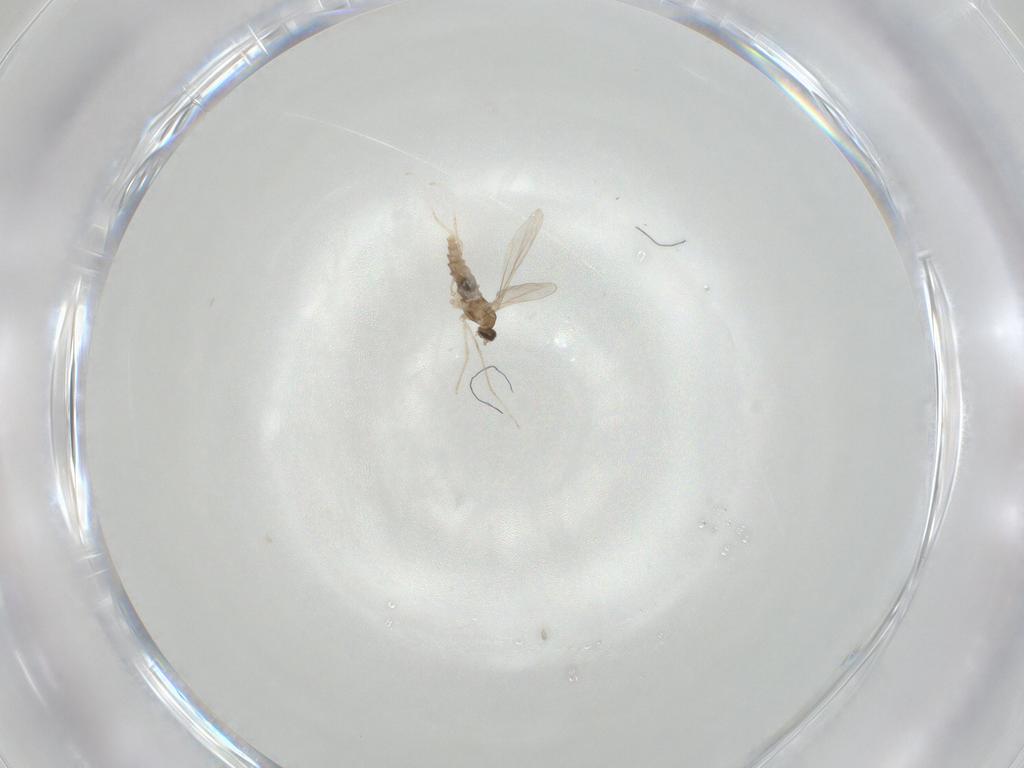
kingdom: Animalia
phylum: Arthropoda
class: Insecta
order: Diptera
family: Cecidomyiidae
